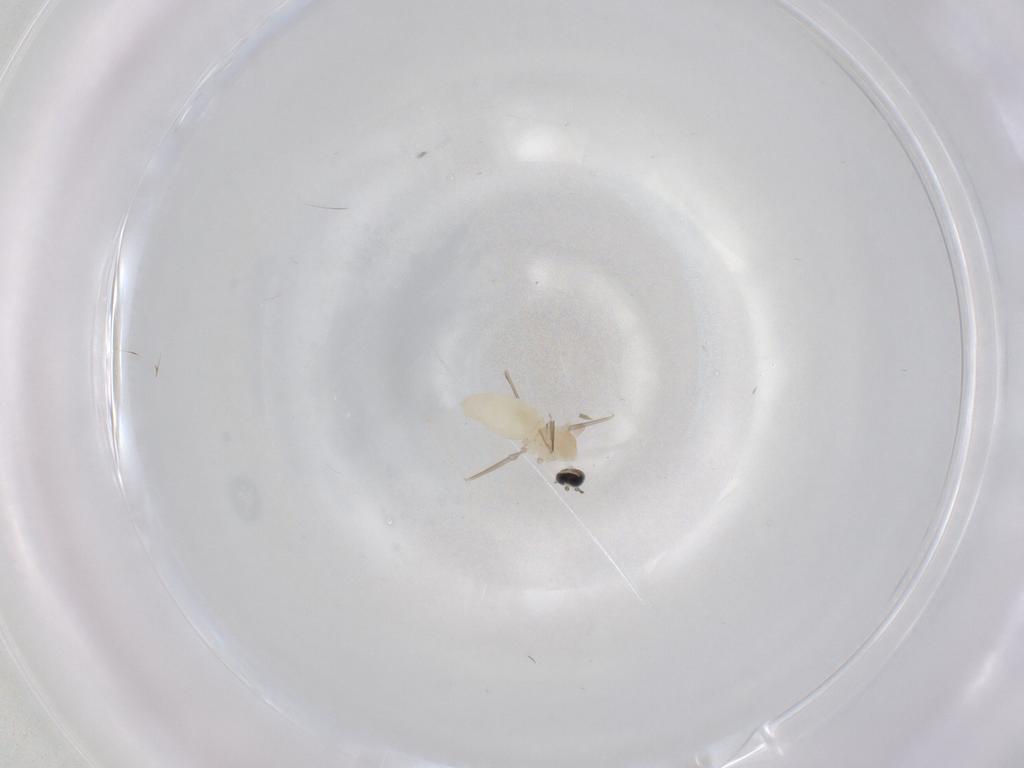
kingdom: Animalia
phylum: Arthropoda
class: Insecta
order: Diptera
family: Cecidomyiidae
